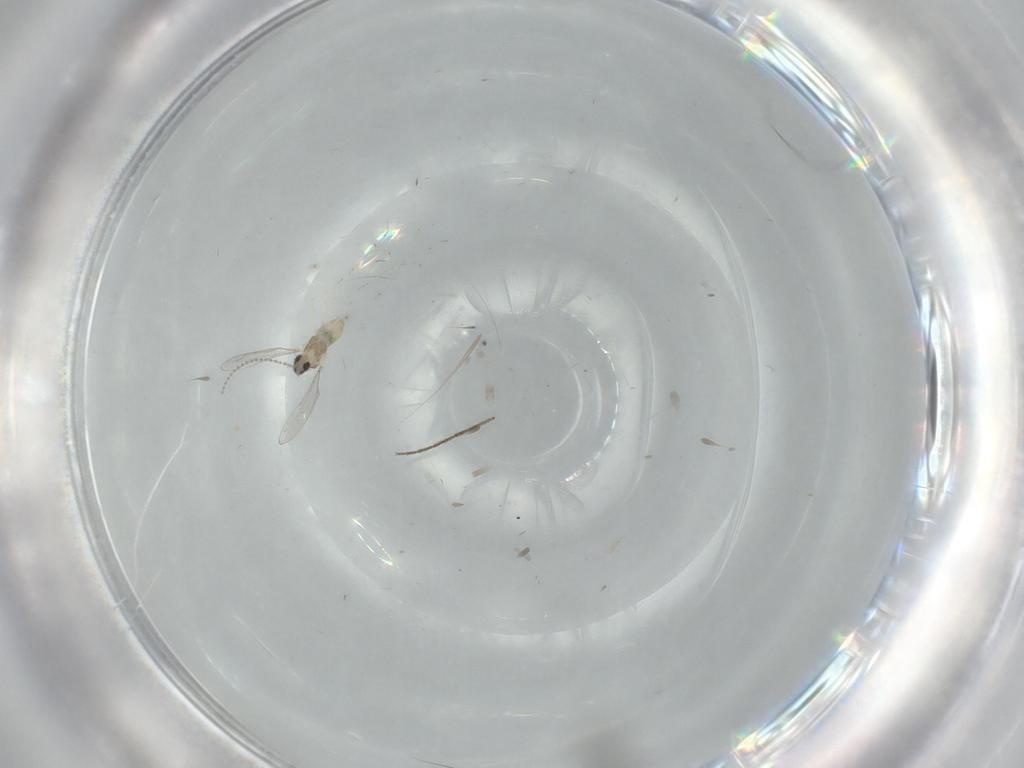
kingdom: Animalia
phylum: Arthropoda
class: Insecta
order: Diptera
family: Cecidomyiidae
